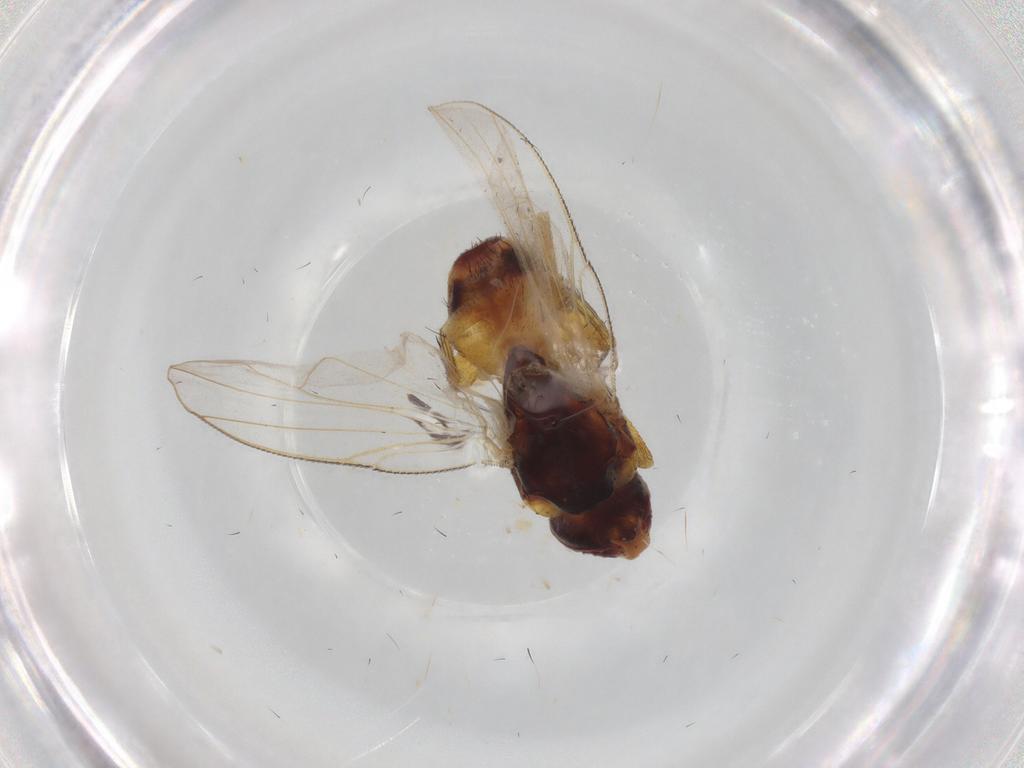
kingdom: Animalia
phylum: Arthropoda
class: Insecta
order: Diptera
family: Muscidae
